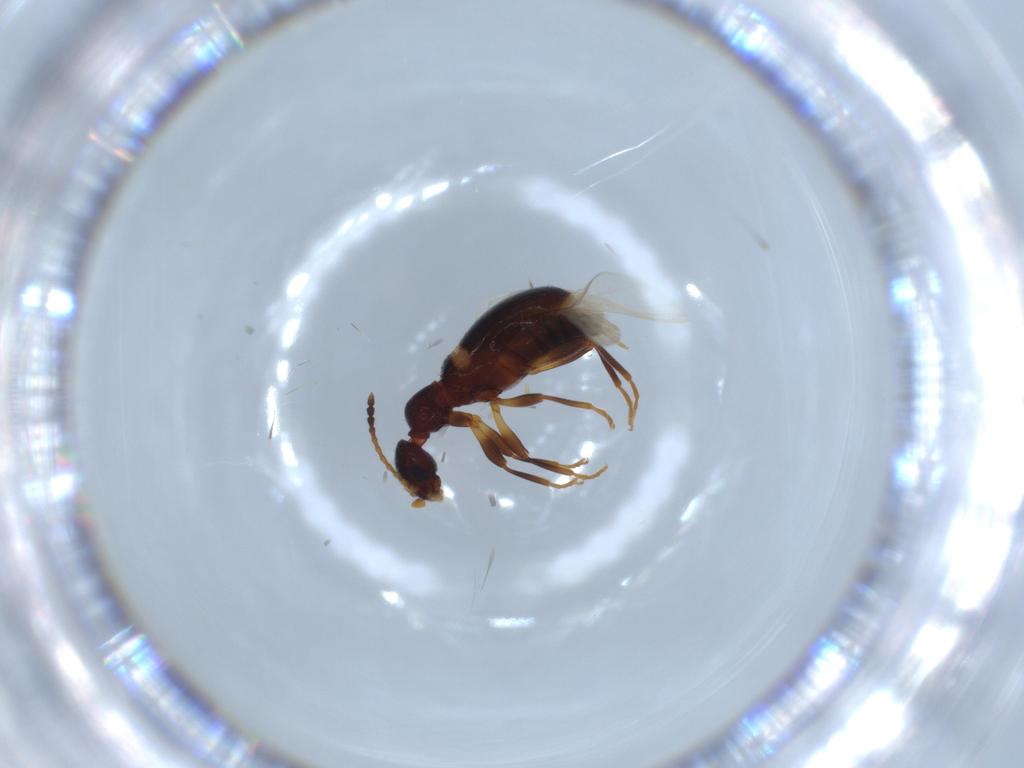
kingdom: Animalia
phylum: Arthropoda
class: Insecta
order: Coleoptera
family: Anthicidae
